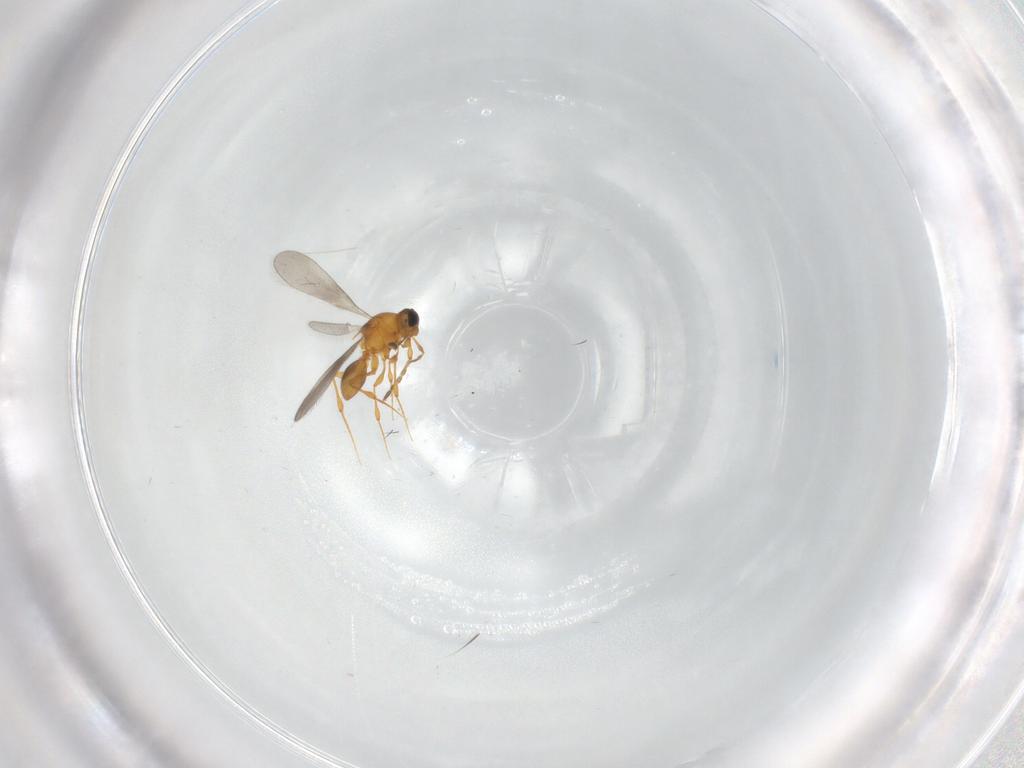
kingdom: Animalia
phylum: Arthropoda
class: Insecta
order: Hymenoptera
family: Platygastridae
